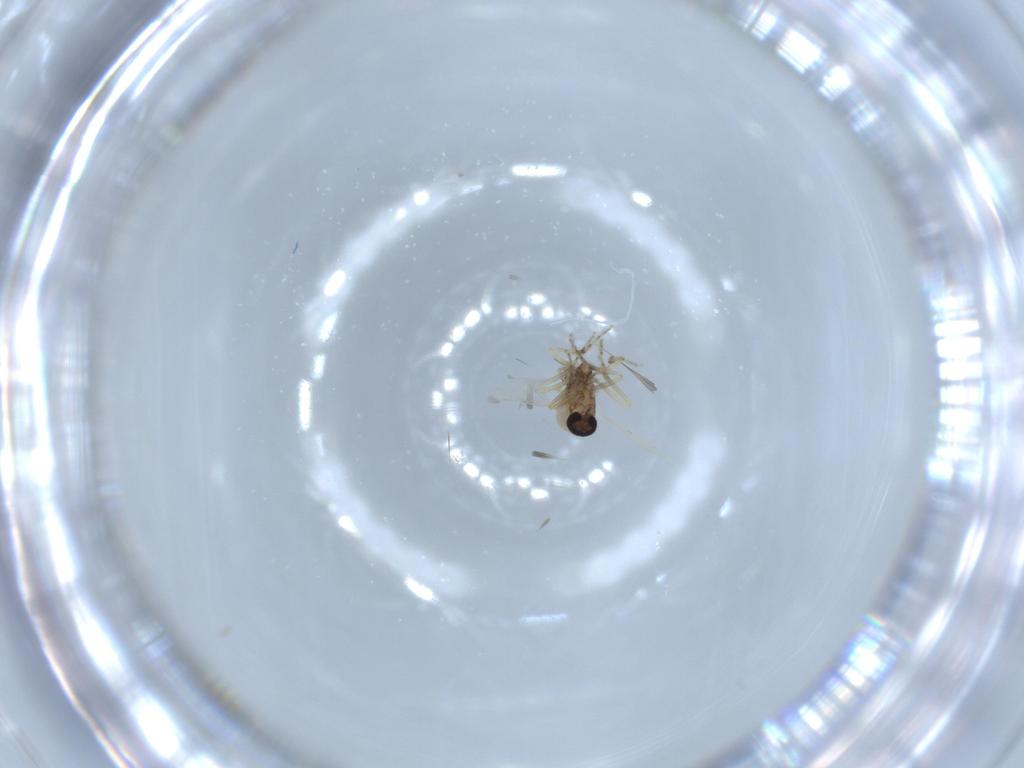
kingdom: Animalia
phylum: Arthropoda
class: Insecta
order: Diptera
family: Ceratopogonidae
